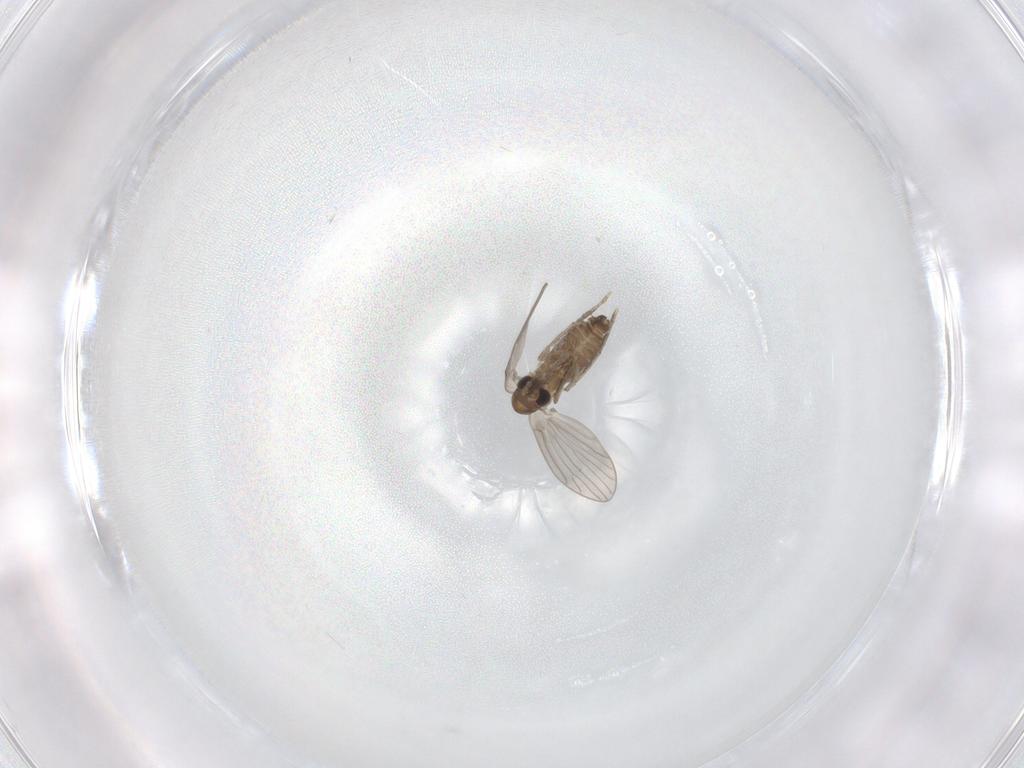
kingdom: Animalia
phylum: Arthropoda
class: Insecta
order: Diptera
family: Chironomidae
